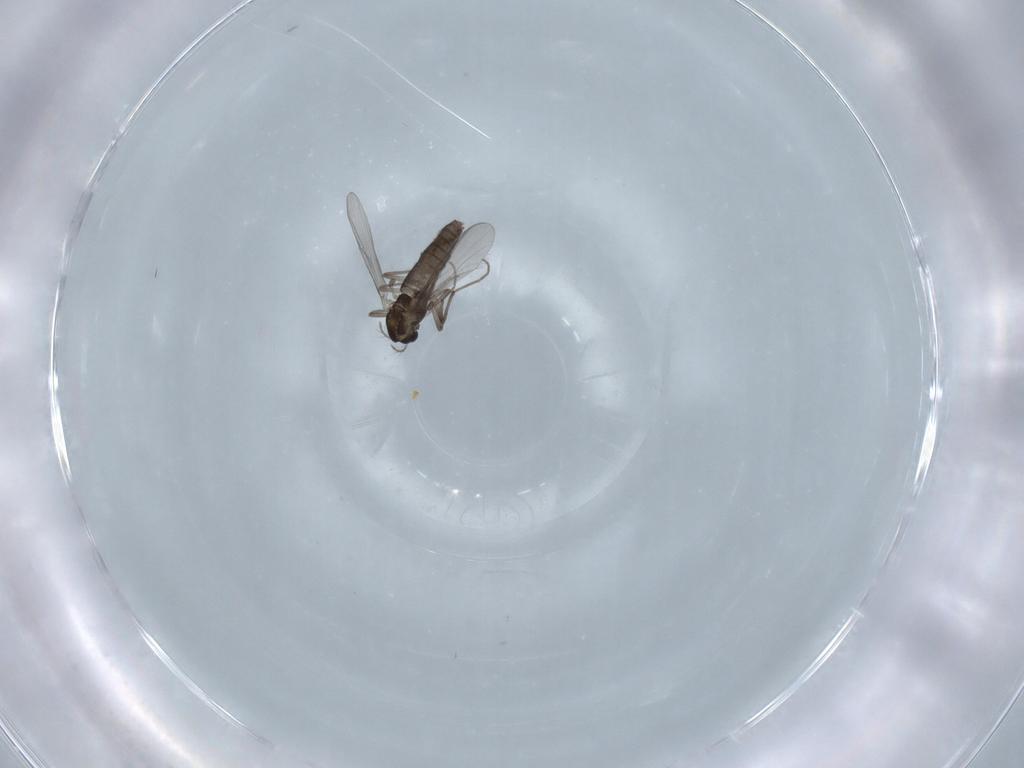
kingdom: Animalia
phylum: Arthropoda
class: Insecta
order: Diptera
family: Chironomidae
